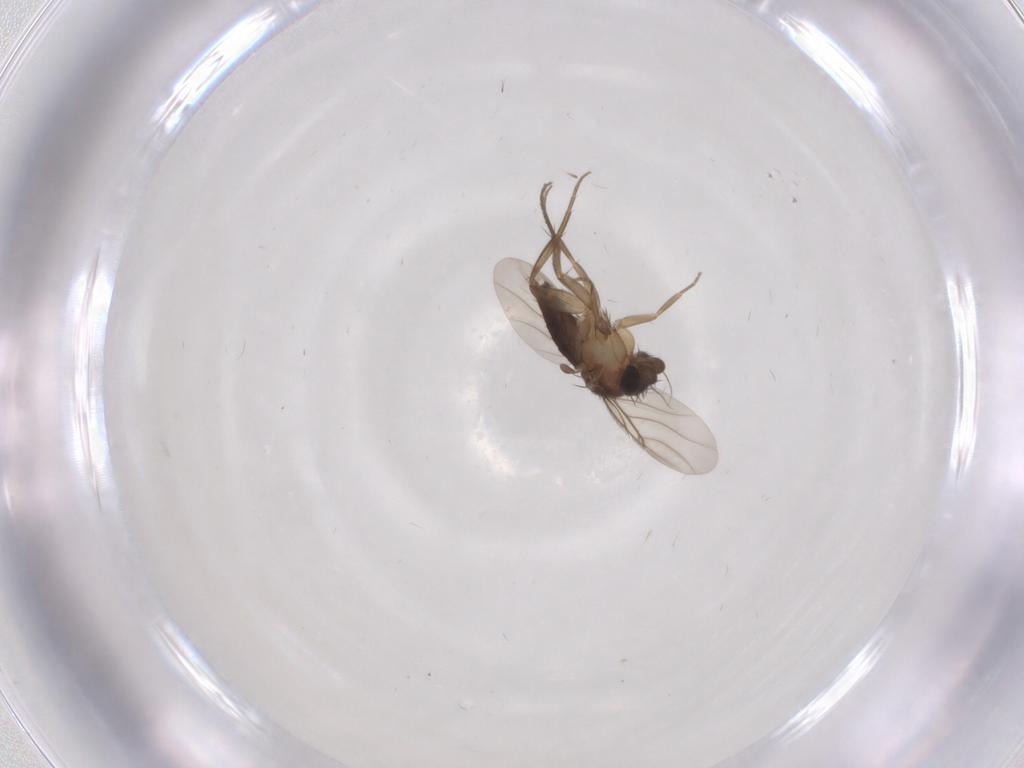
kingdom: Animalia
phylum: Arthropoda
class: Insecta
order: Diptera
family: Phoridae
